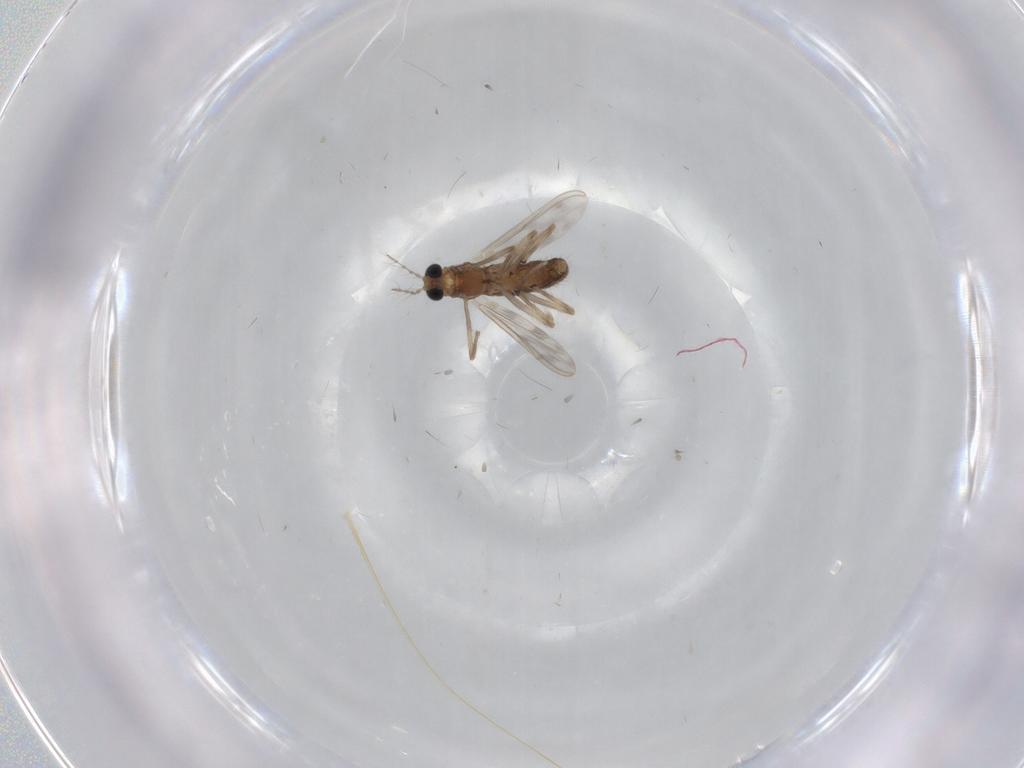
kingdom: Animalia
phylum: Arthropoda
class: Insecta
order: Diptera
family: Chironomidae
